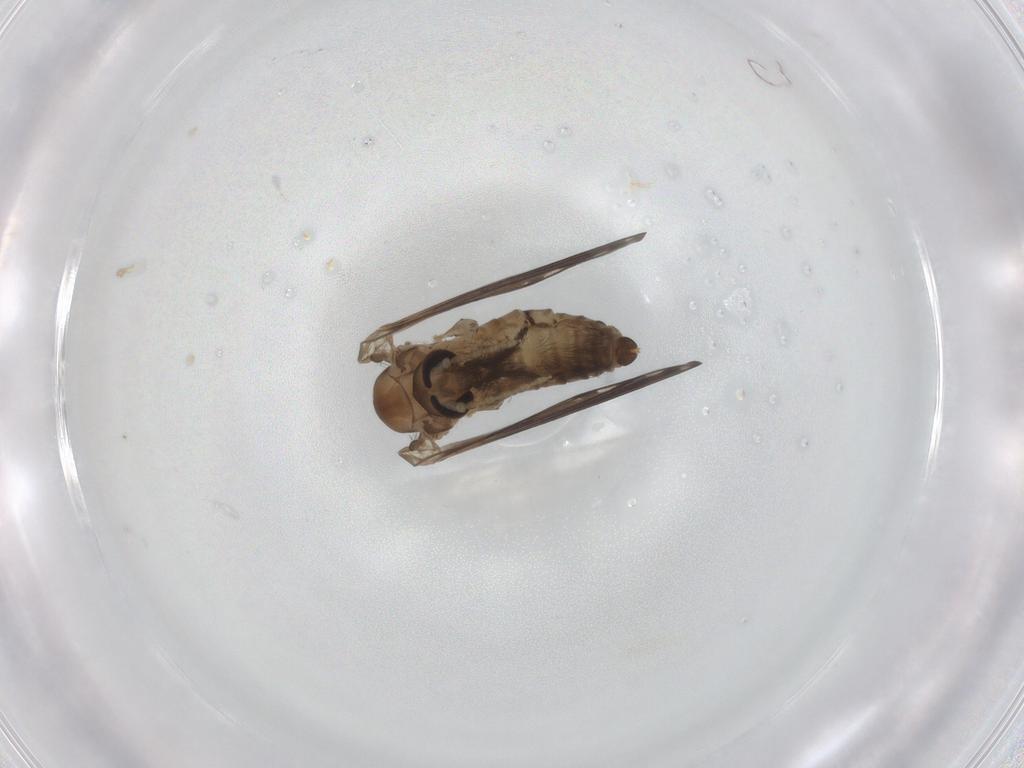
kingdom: Animalia
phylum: Arthropoda
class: Insecta
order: Diptera
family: Psychodidae
